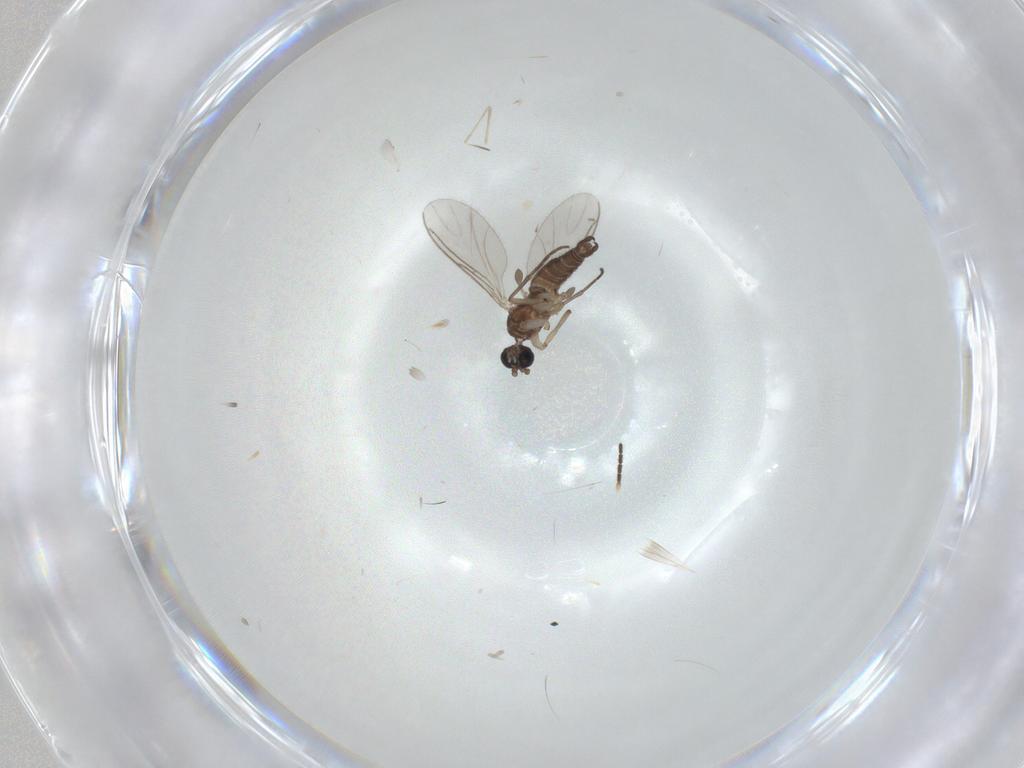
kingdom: Animalia
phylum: Arthropoda
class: Insecta
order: Diptera
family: Sciaridae
